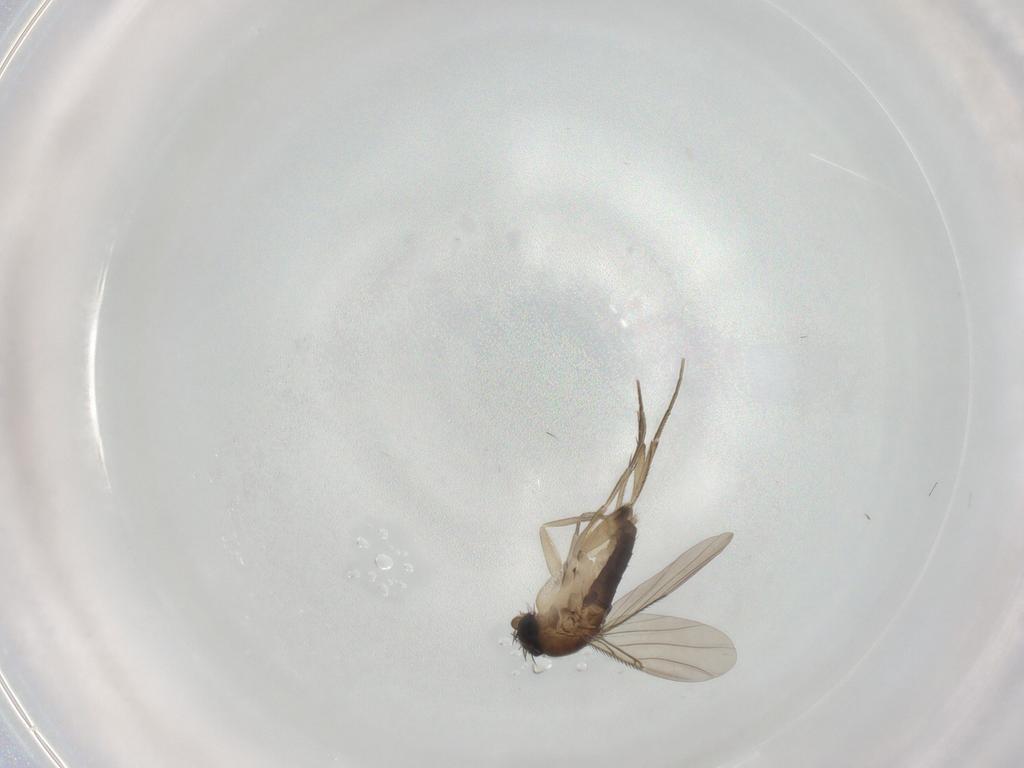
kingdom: Animalia
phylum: Arthropoda
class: Insecta
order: Diptera
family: Phoridae
